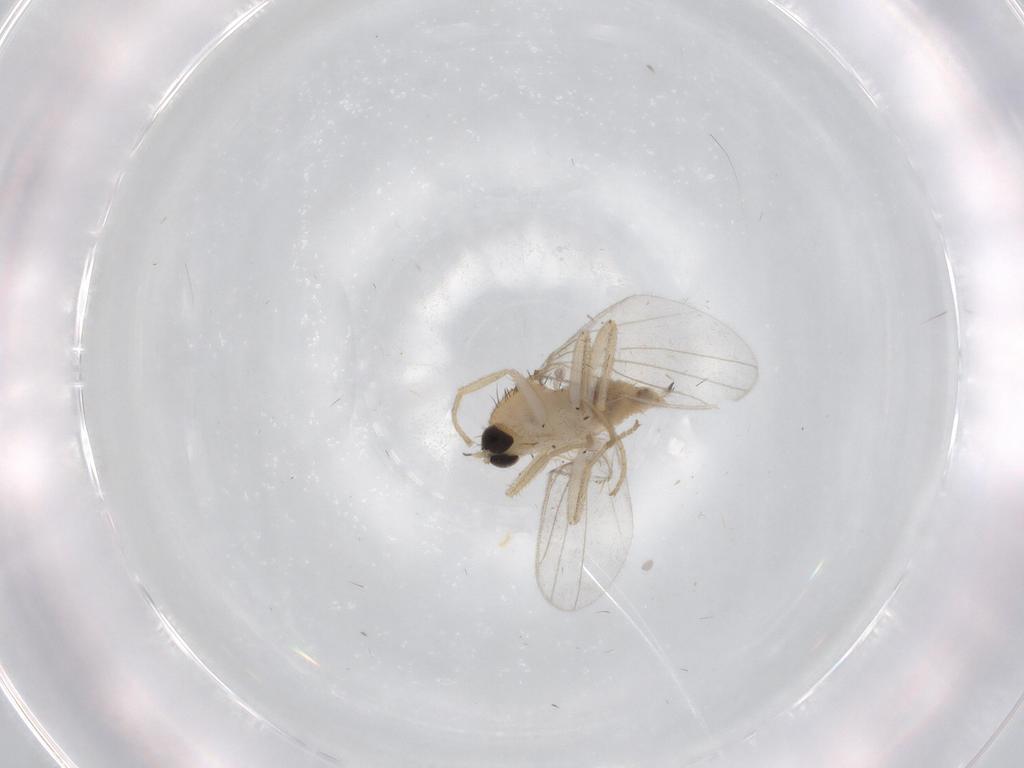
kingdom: Animalia
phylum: Arthropoda
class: Insecta
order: Diptera
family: Hybotidae
